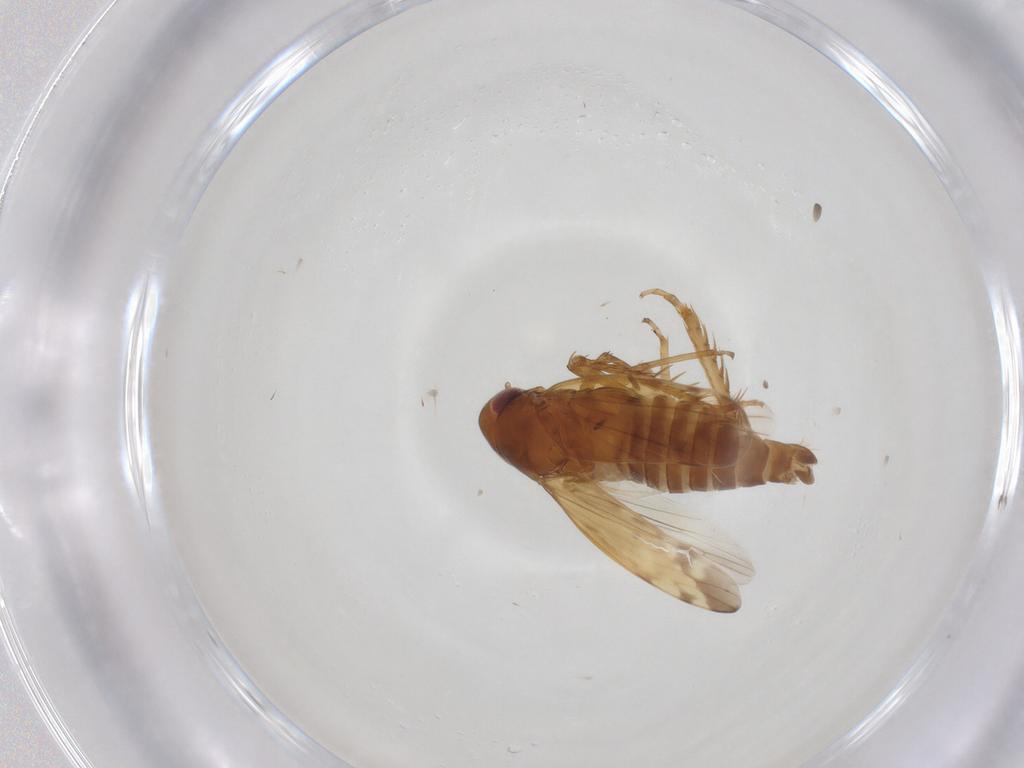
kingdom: Animalia
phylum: Arthropoda
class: Insecta
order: Hemiptera
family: Cicadellidae
